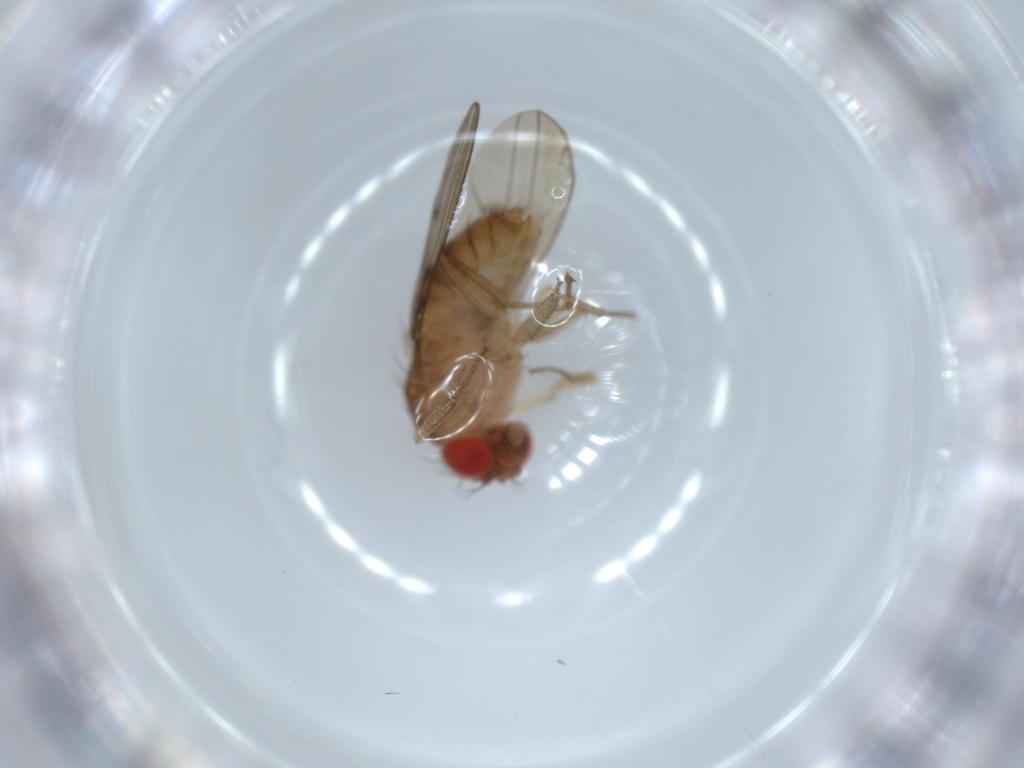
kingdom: Animalia
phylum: Arthropoda
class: Insecta
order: Diptera
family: Drosophilidae
